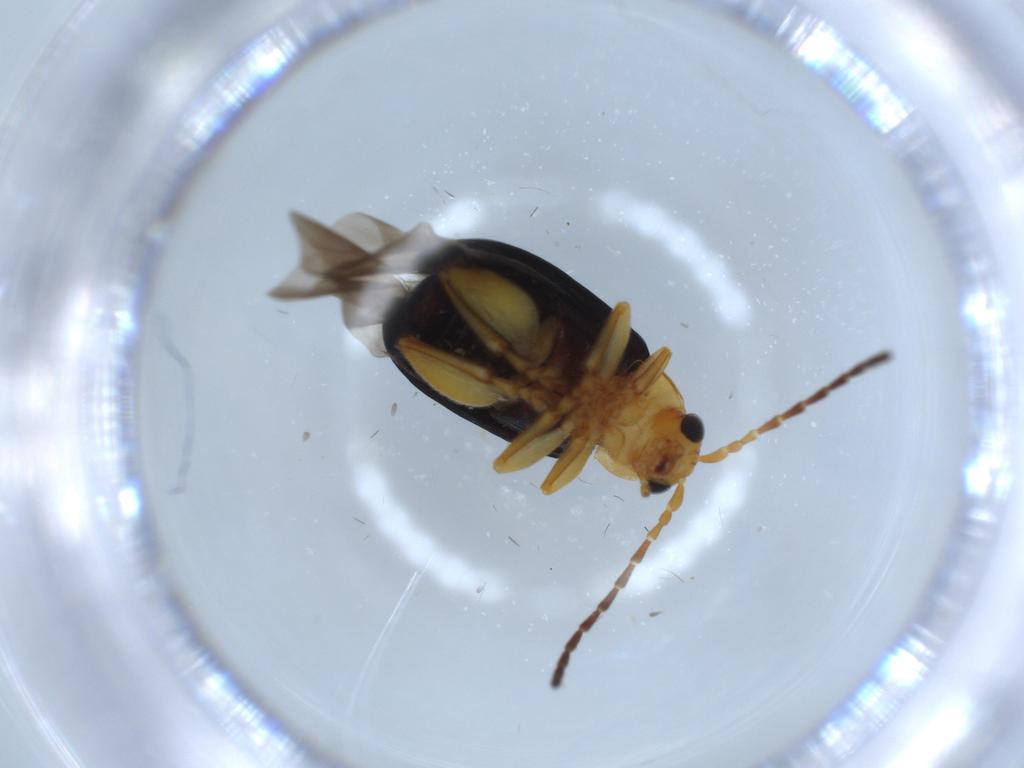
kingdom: Animalia
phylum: Arthropoda
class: Insecta
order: Coleoptera
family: Chrysomelidae
